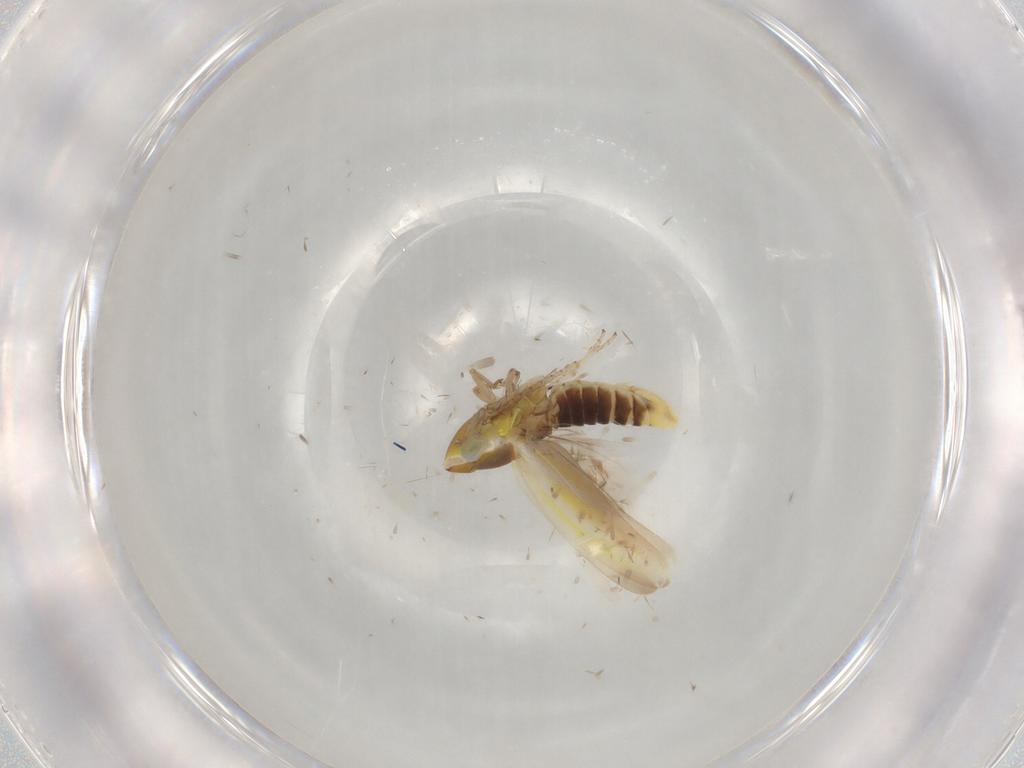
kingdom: Animalia
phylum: Arthropoda
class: Insecta
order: Hemiptera
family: Cicadellidae
